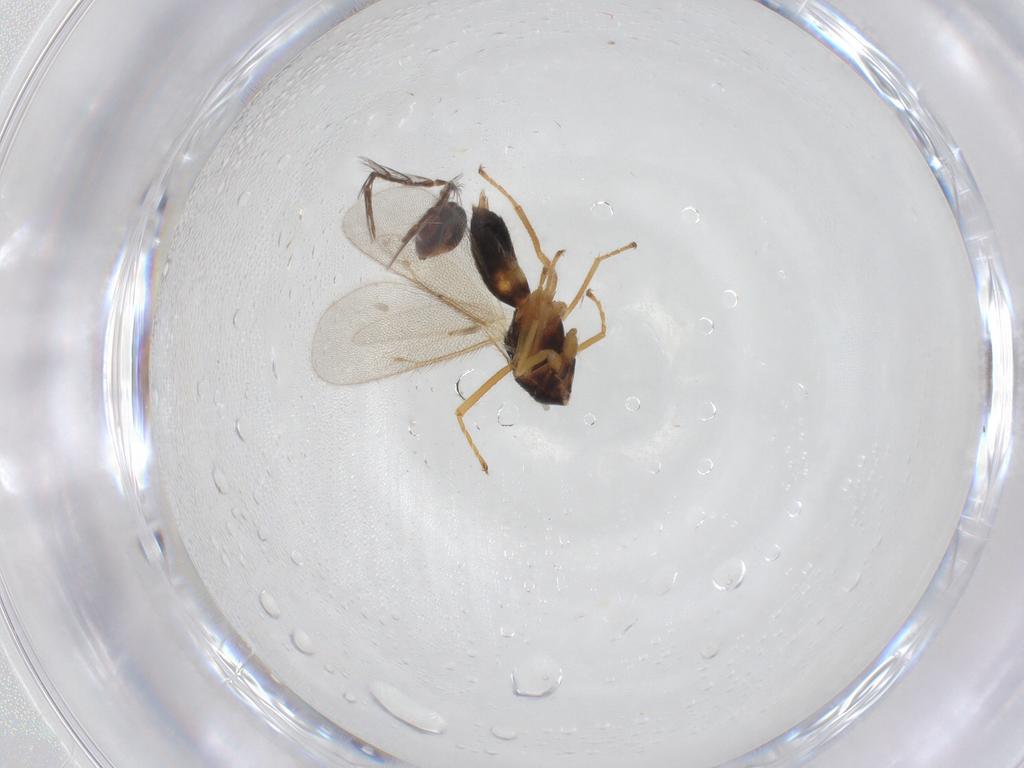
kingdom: Animalia
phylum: Arthropoda
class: Insecta
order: Hymenoptera
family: Eulophidae
